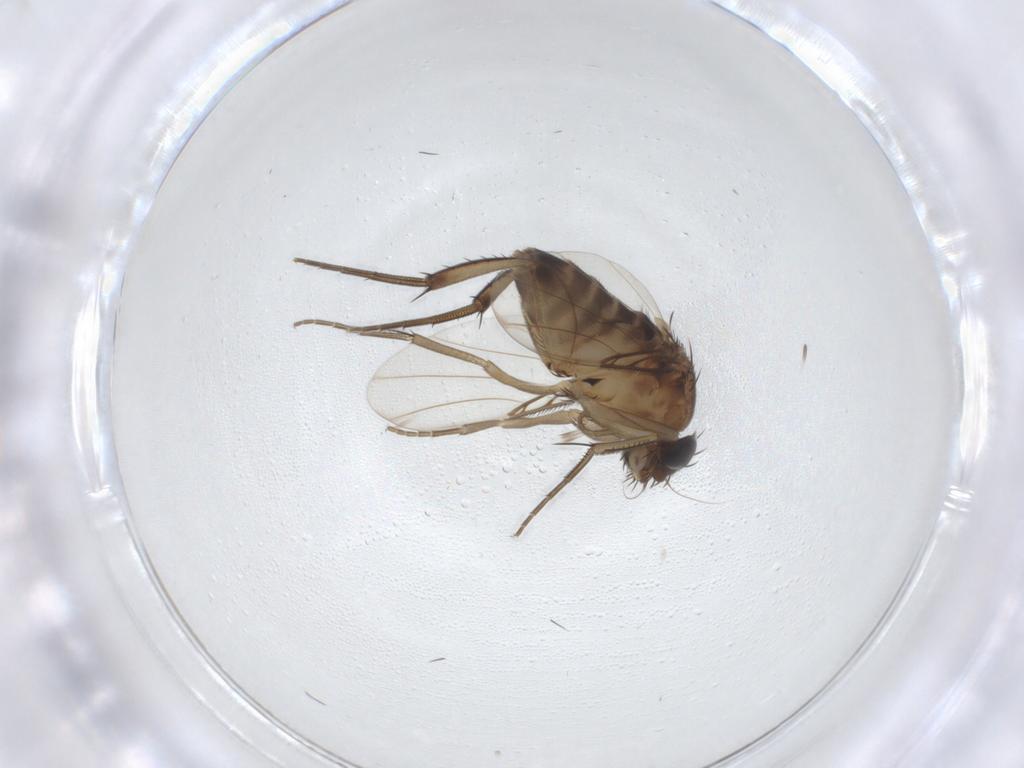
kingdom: Animalia
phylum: Arthropoda
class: Insecta
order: Diptera
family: Phoridae
